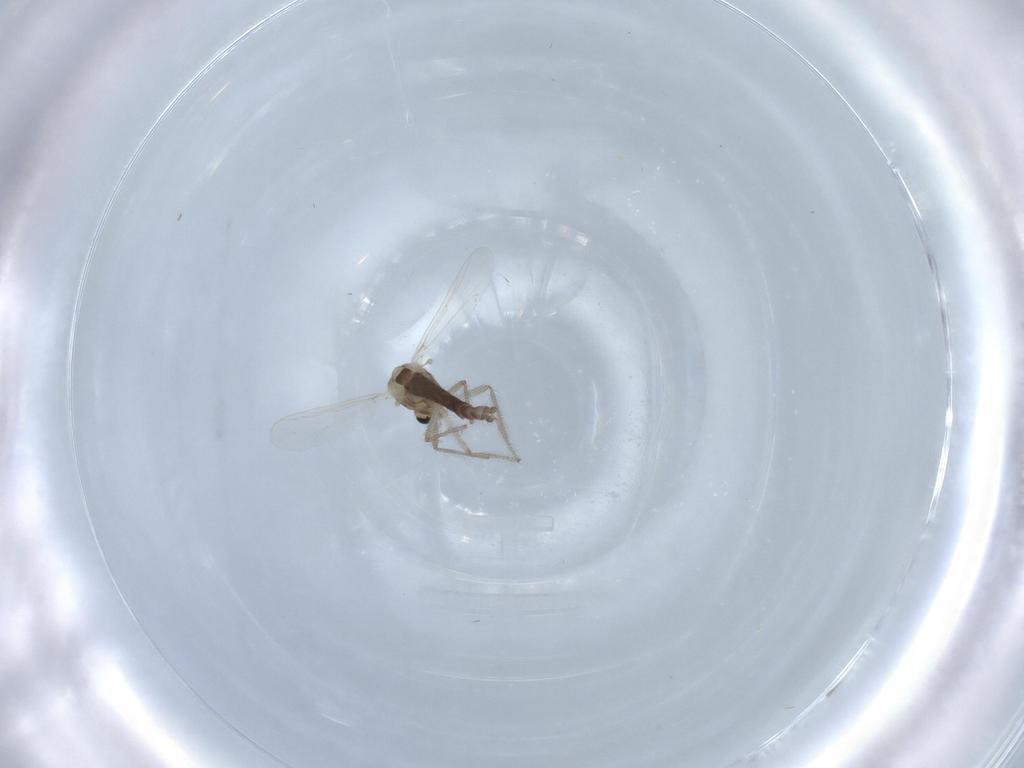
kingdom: Animalia
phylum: Arthropoda
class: Insecta
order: Diptera
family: Chironomidae
